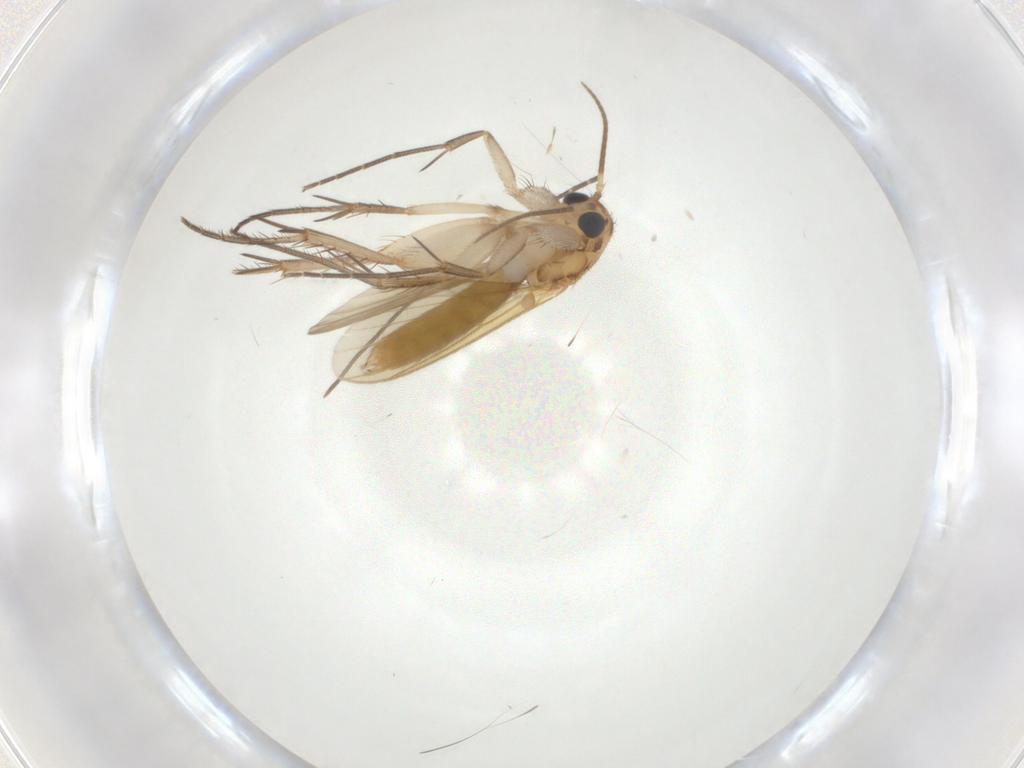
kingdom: Animalia
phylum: Arthropoda
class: Insecta
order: Diptera
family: Mycetophilidae
